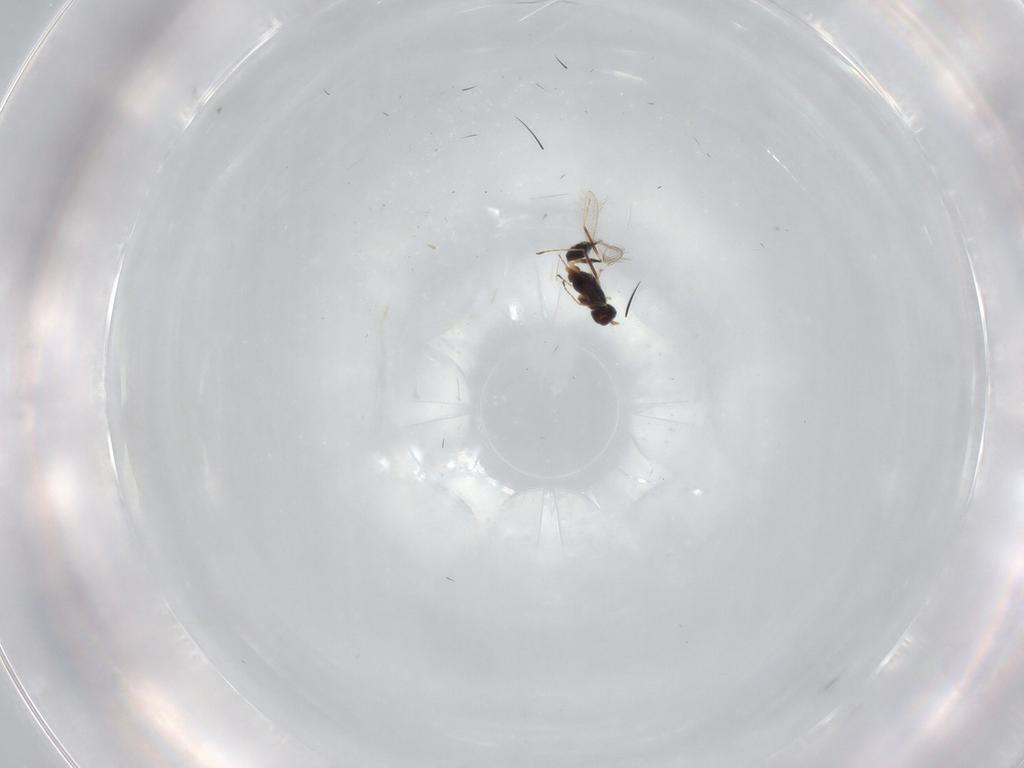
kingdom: Animalia
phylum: Arthropoda
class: Insecta
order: Hymenoptera
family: Mymaridae
